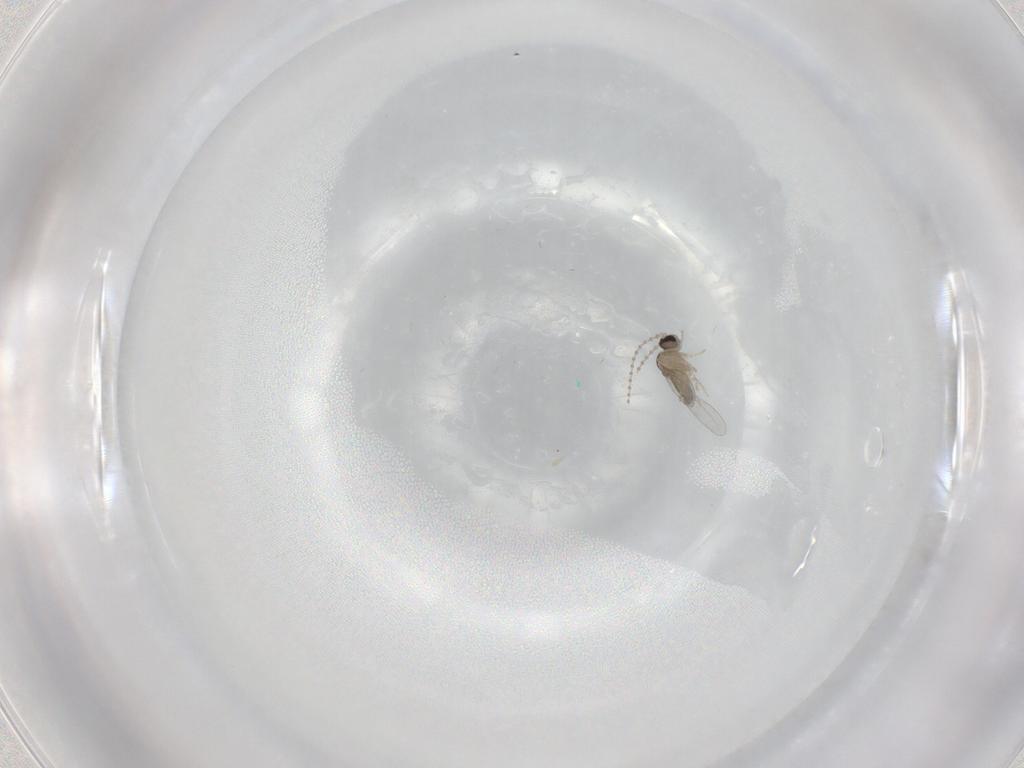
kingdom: Animalia
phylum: Arthropoda
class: Insecta
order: Diptera
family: Cecidomyiidae
